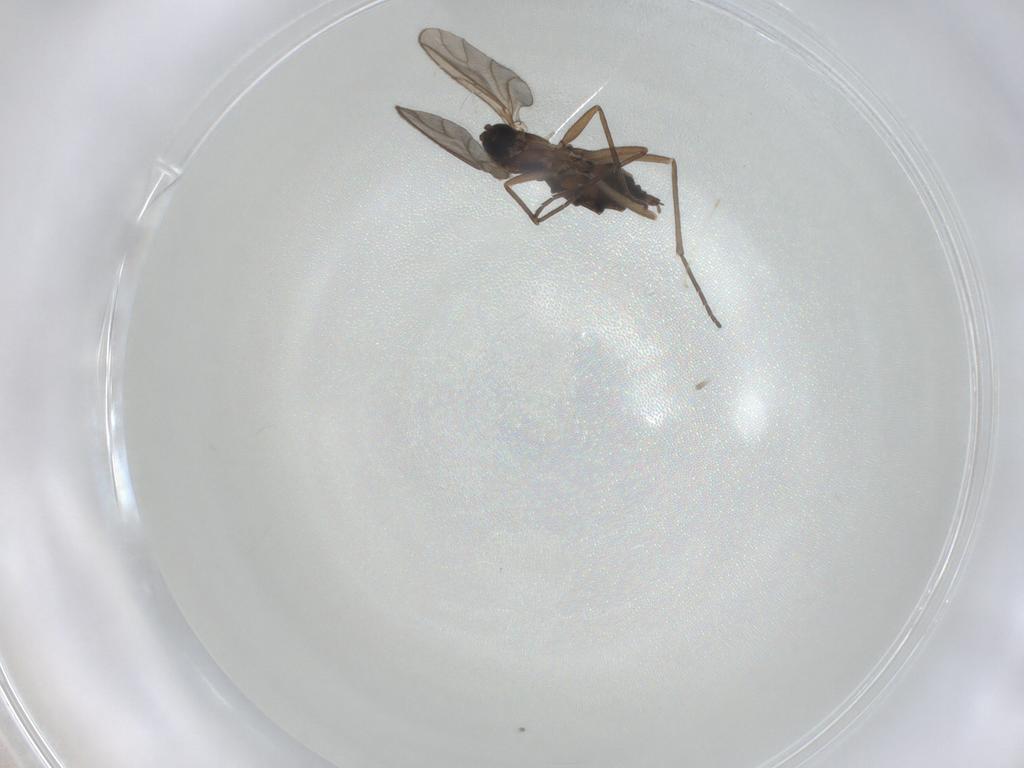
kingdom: Animalia
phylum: Arthropoda
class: Insecta
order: Diptera
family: Sciaridae
